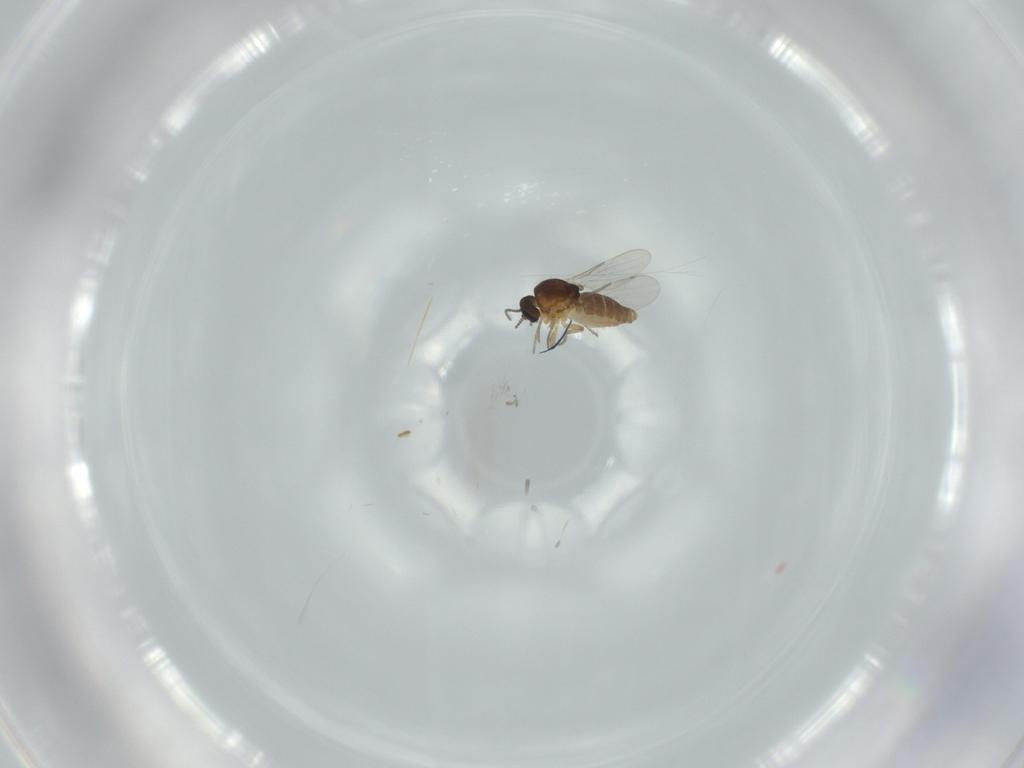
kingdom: Animalia
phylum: Arthropoda
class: Insecta
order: Diptera
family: Ceratopogonidae
